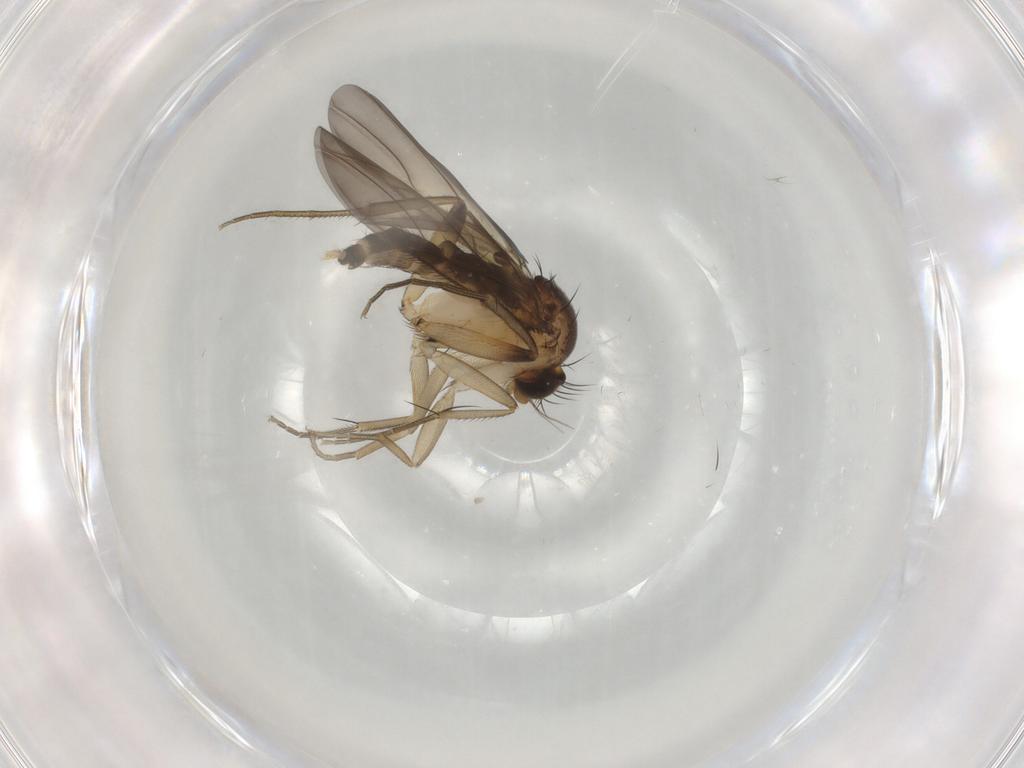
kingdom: Animalia
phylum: Arthropoda
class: Insecta
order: Diptera
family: Phoridae
